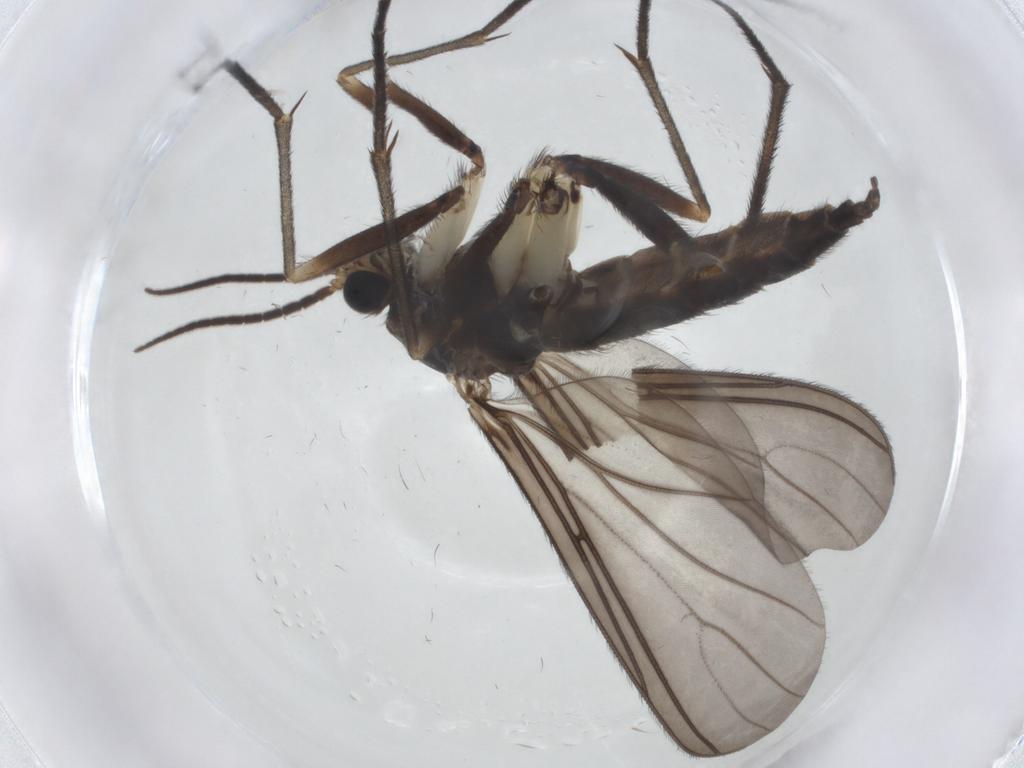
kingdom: Animalia
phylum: Arthropoda
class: Insecta
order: Diptera
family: Sciaridae
